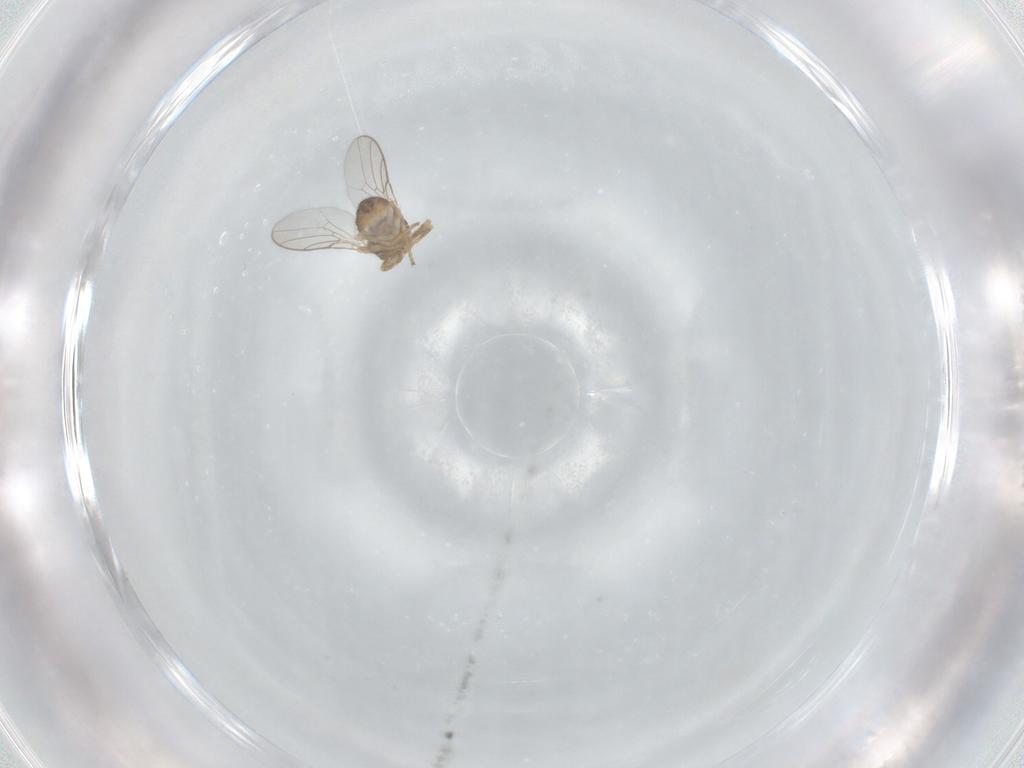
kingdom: Animalia
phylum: Arthropoda
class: Insecta
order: Diptera
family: Chloropidae
